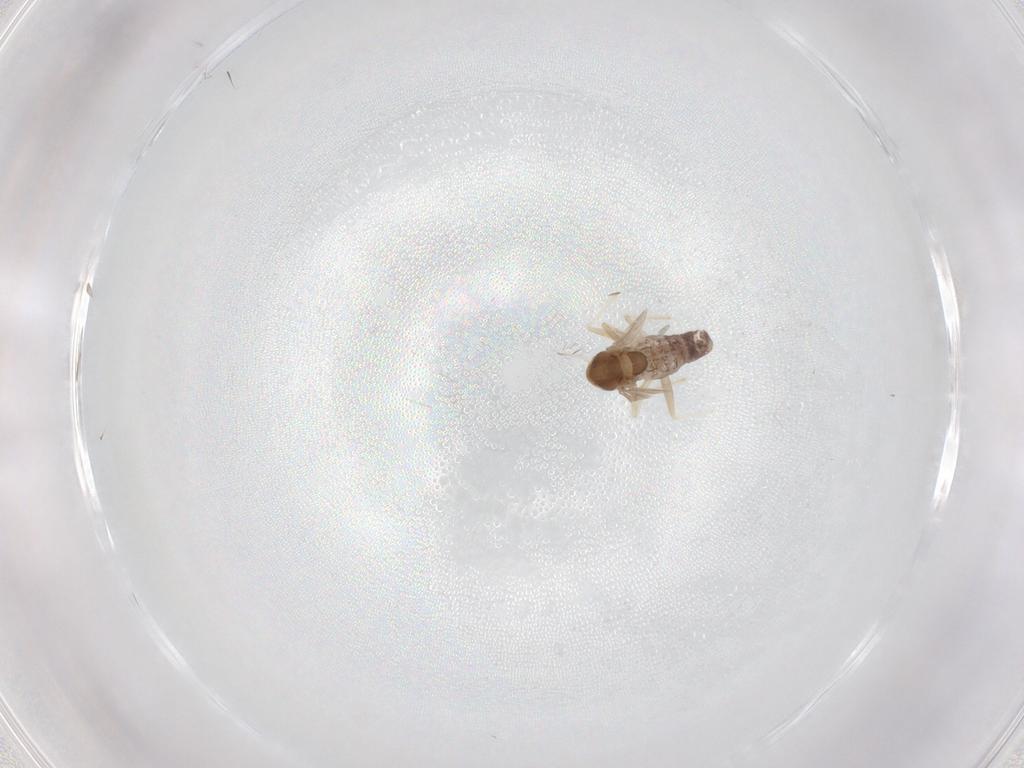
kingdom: Animalia
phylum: Arthropoda
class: Insecta
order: Diptera
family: Chironomidae
